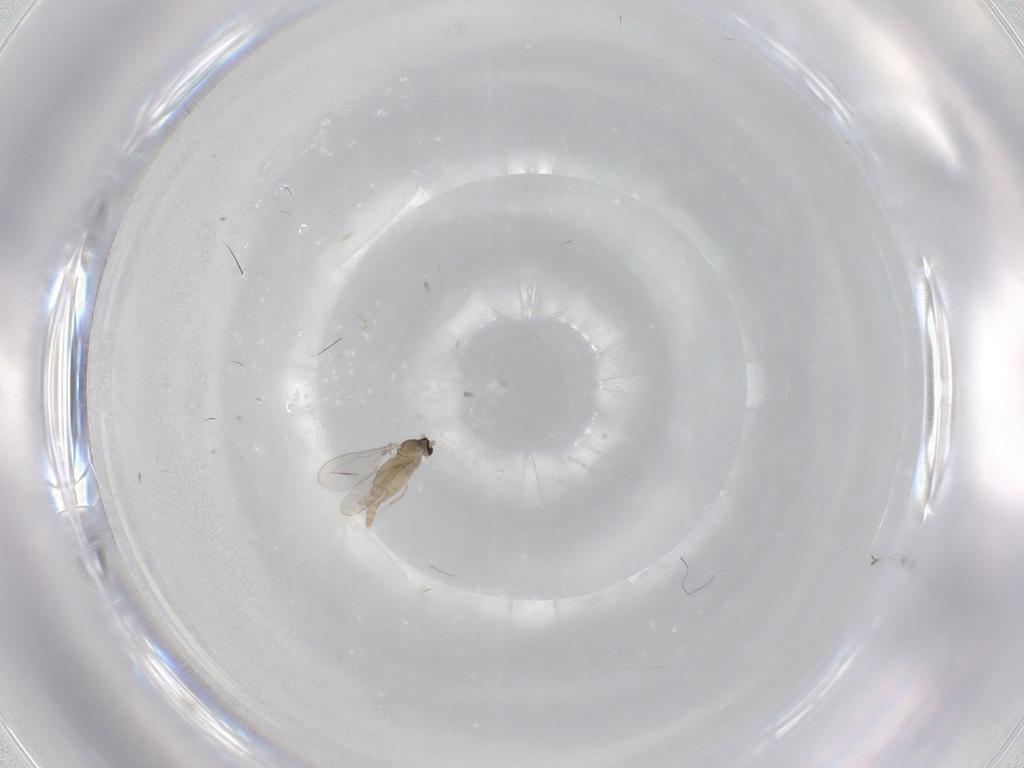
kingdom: Animalia
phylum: Arthropoda
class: Insecta
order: Diptera
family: Cecidomyiidae
